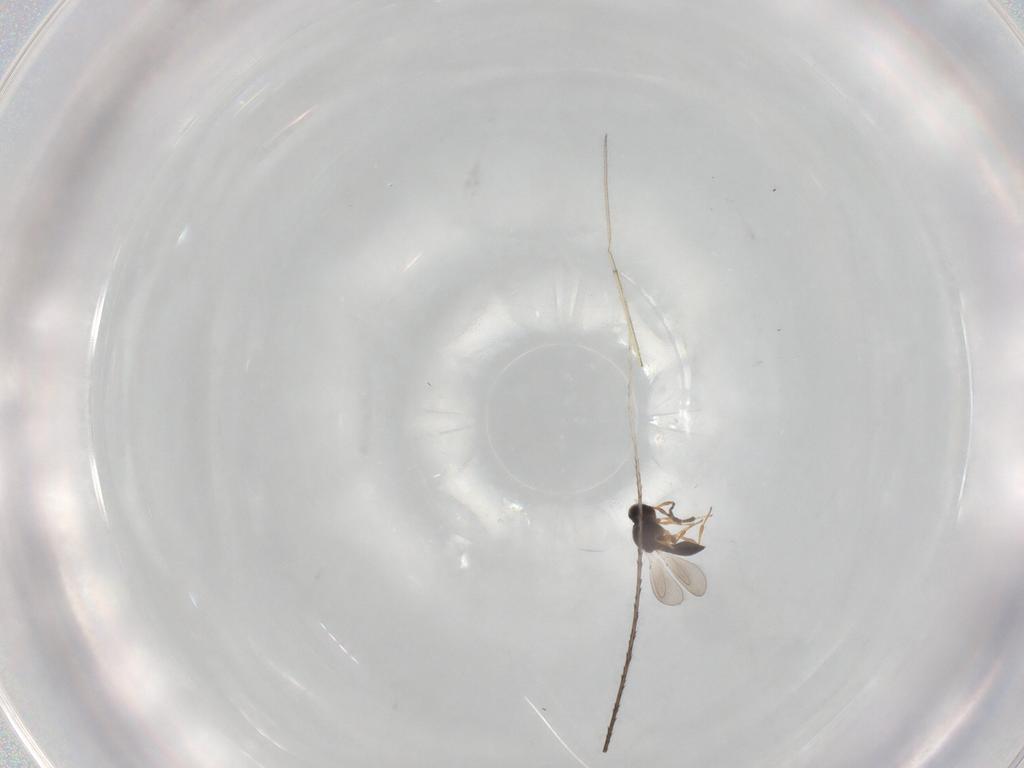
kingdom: Animalia
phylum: Arthropoda
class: Insecta
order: Hymenoptera
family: Platygastridae
